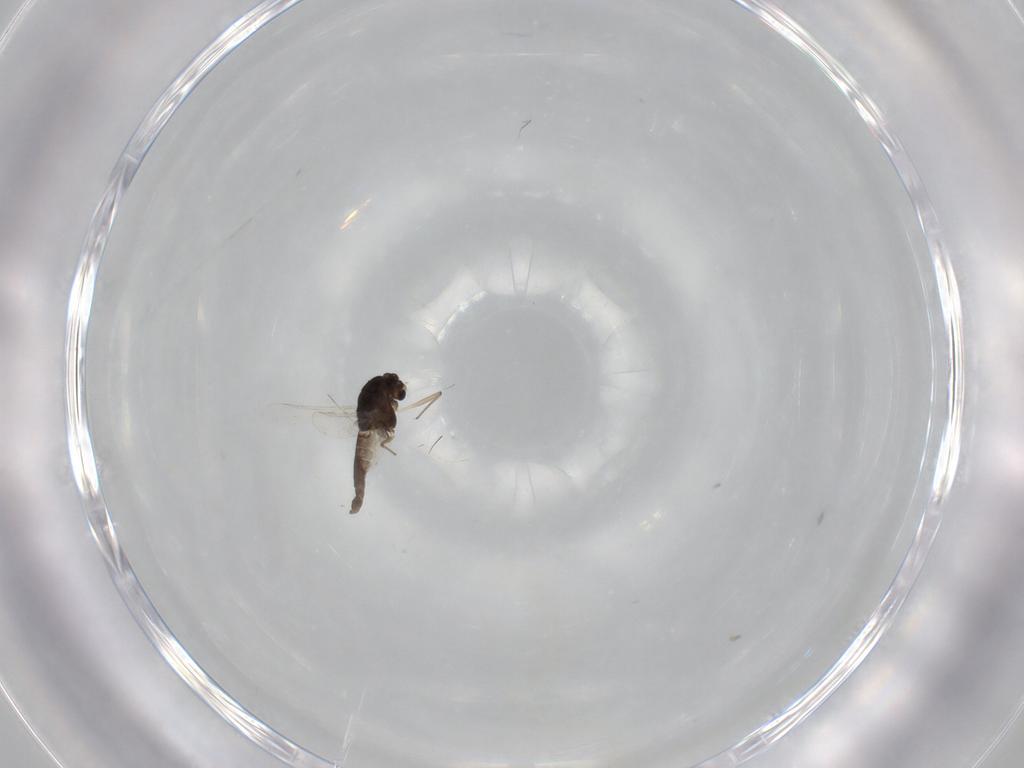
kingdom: Animalia
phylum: Arthropoda
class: Insecta
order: Diptera
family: Chironomidae
